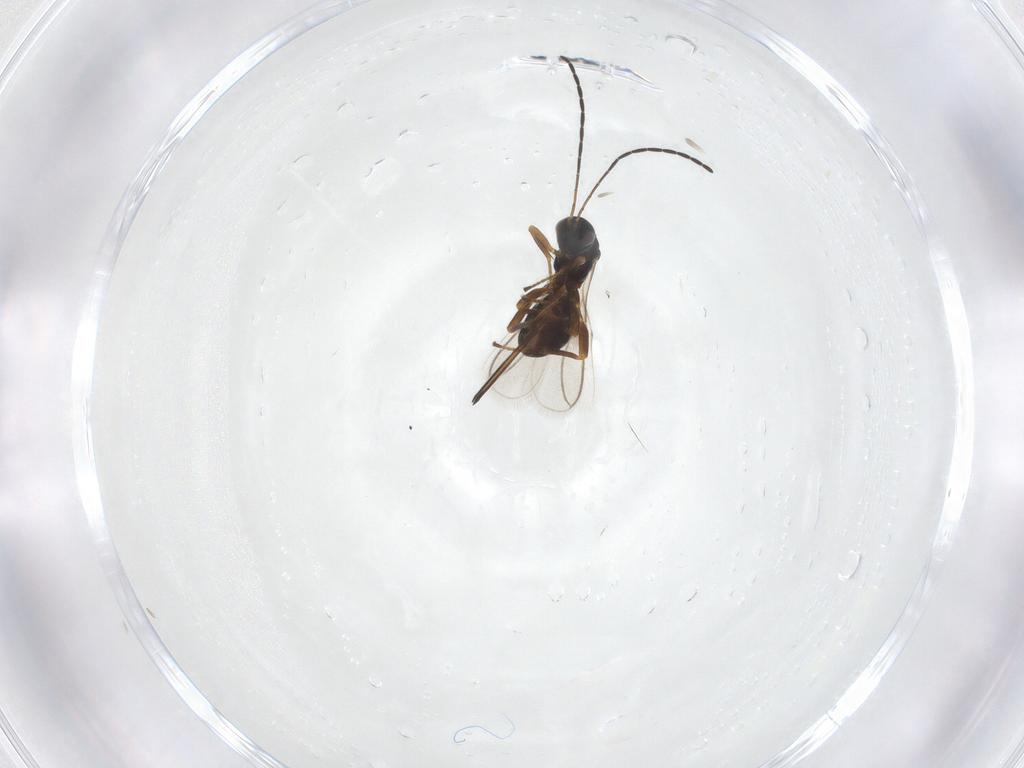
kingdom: Animalia
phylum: Arthropoda
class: Insecta
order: Hymenoptera
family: Braconidae
